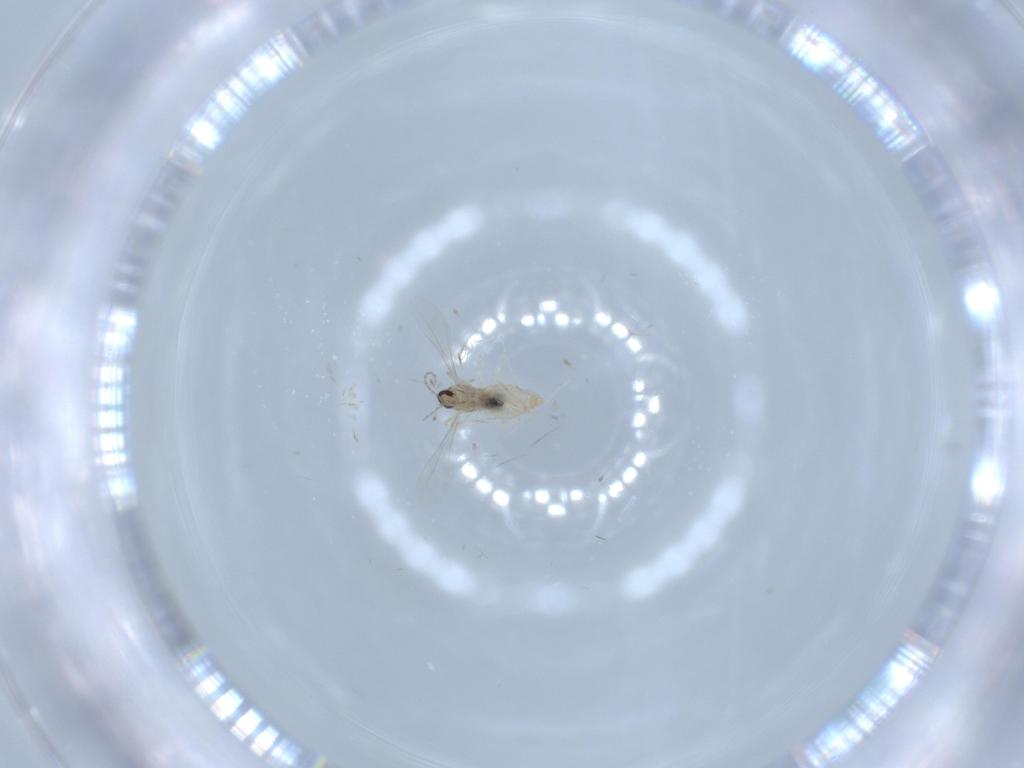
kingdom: Animalia
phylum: Arthropoda
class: Insecta
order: Diptera
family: Cecidomyiidae
